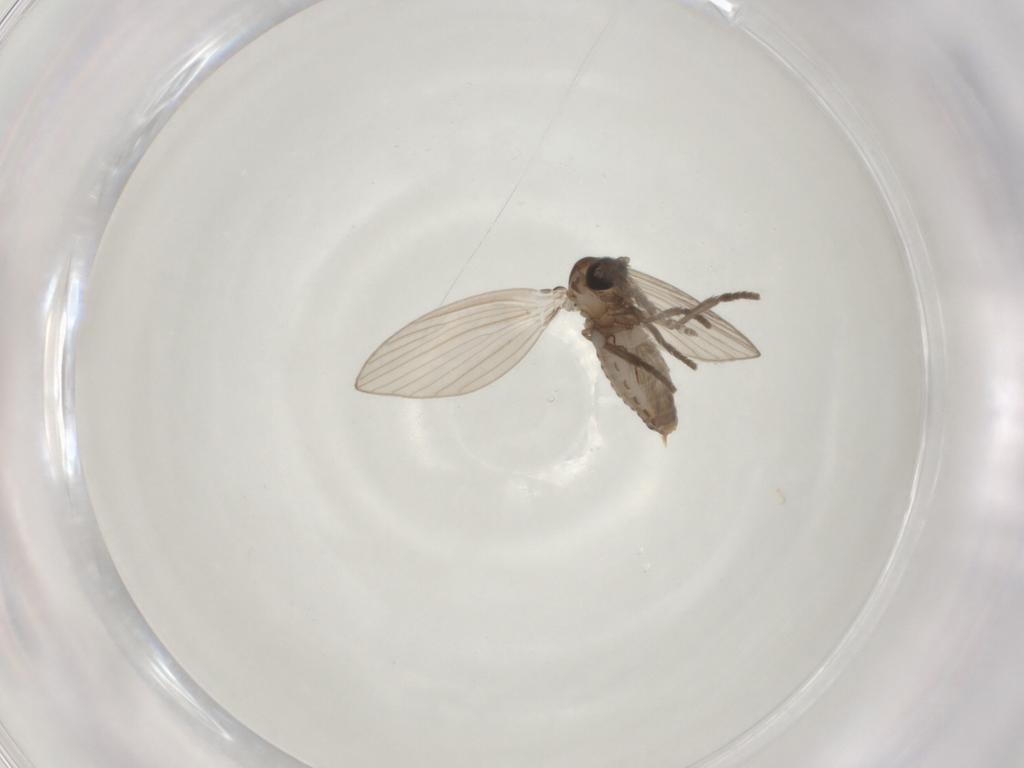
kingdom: Animalia
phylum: Arthropoda
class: Insecta
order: Diptera
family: Psychodidae
